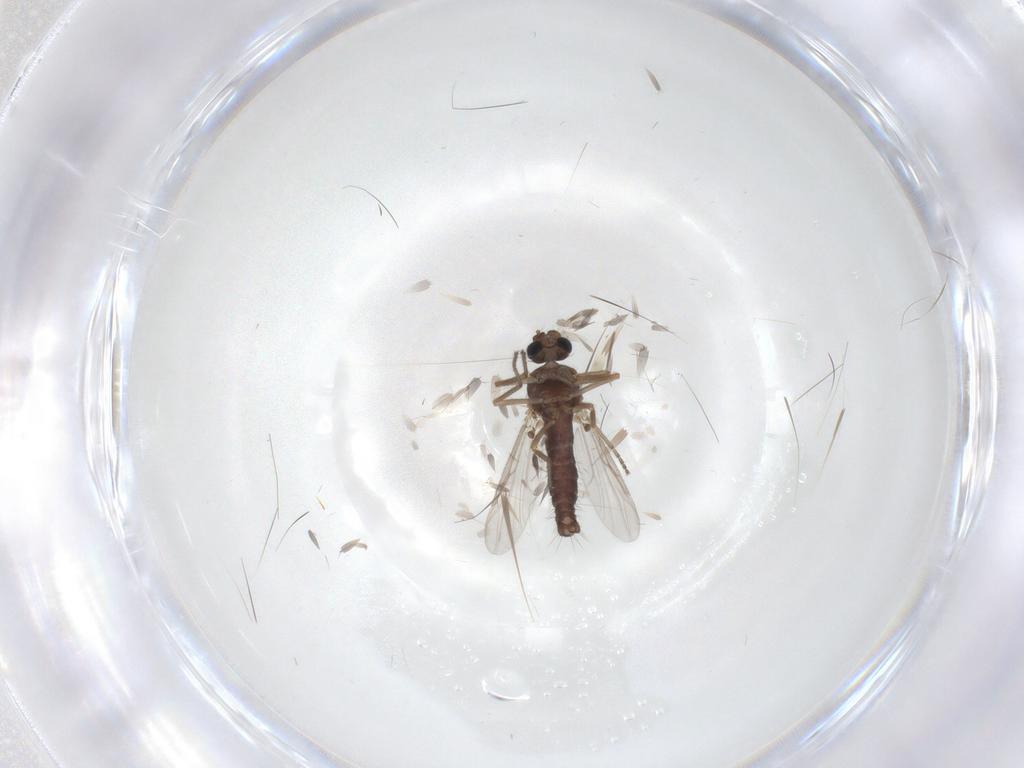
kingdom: Animalia
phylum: Arthropoda
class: Insecta
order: Diptera
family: Ceratopogonidae
